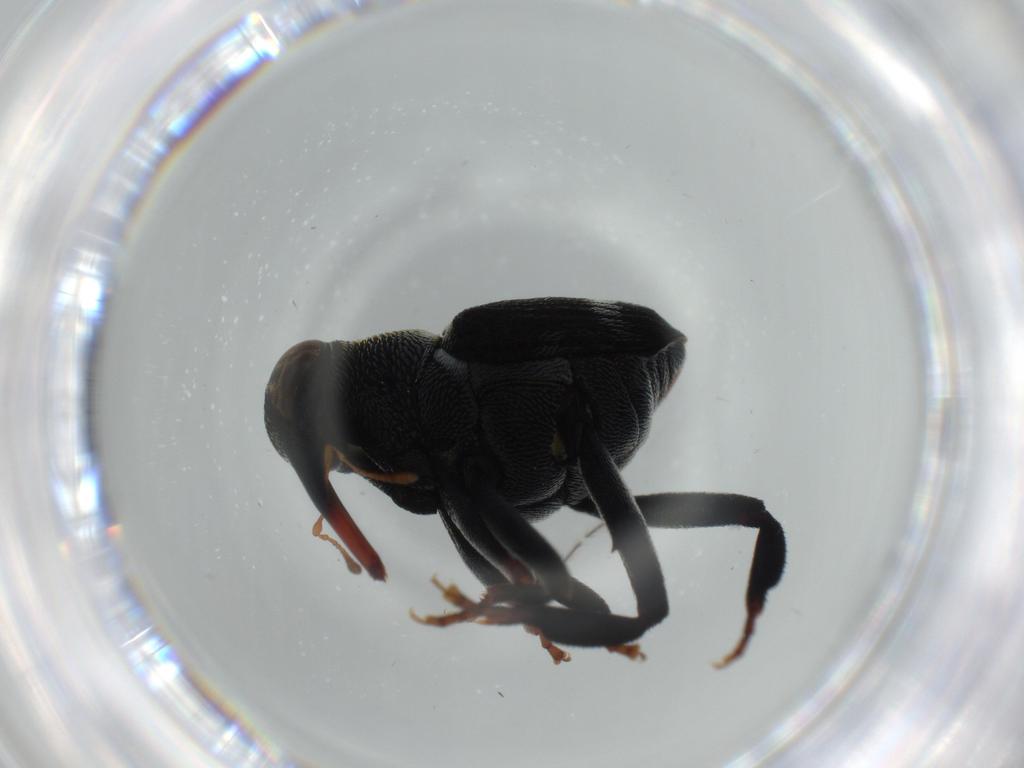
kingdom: Animalia
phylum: Arthropoda
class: Insecta
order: Coleoptera
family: Curculionidae
